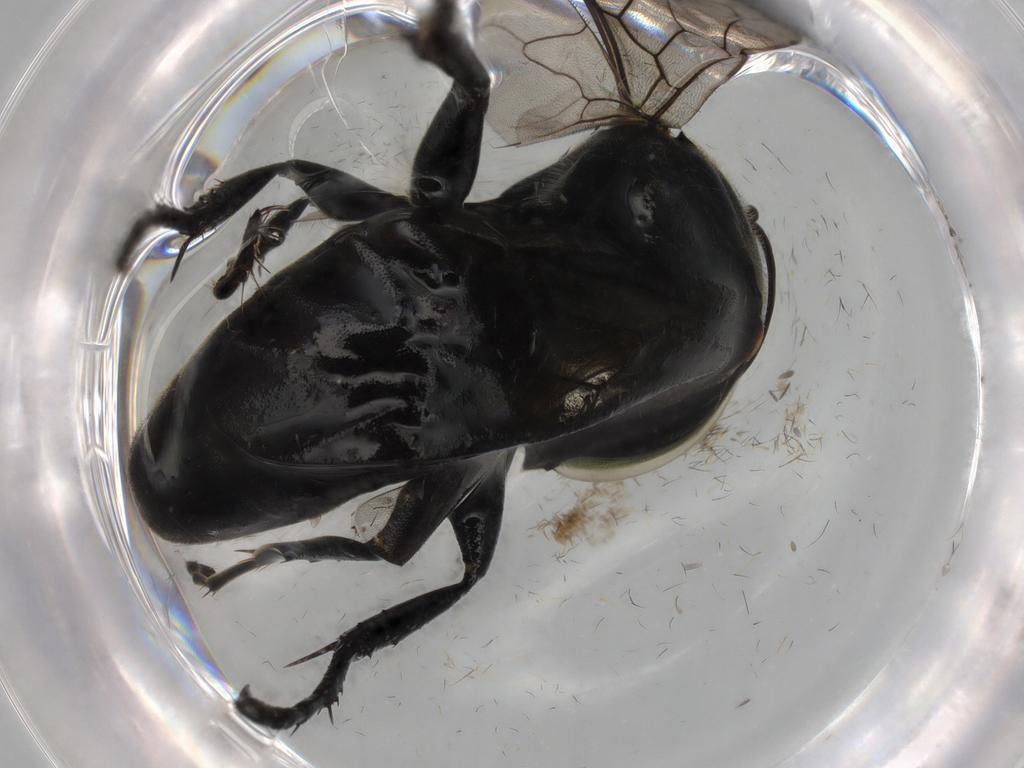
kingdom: Animalia
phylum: Arthropoda
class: Insecta
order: Hymenoptera
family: Crabronidae
